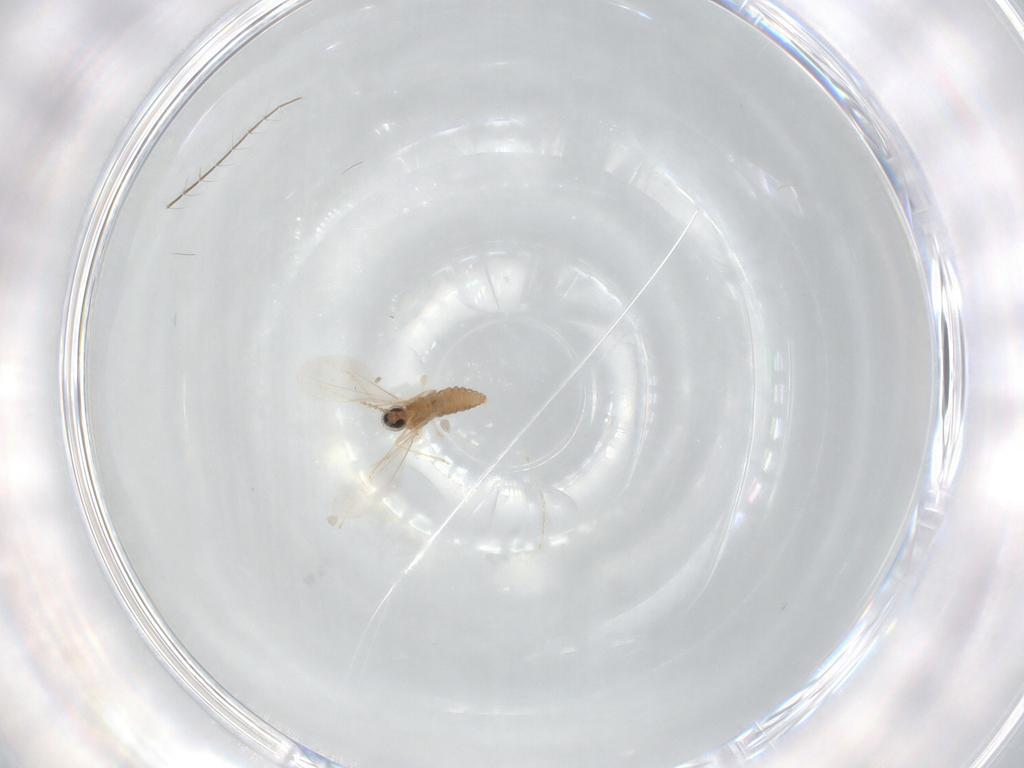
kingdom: Animalia
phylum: Arthropoda
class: Insecta
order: Diptera
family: Cecidomyiidae
